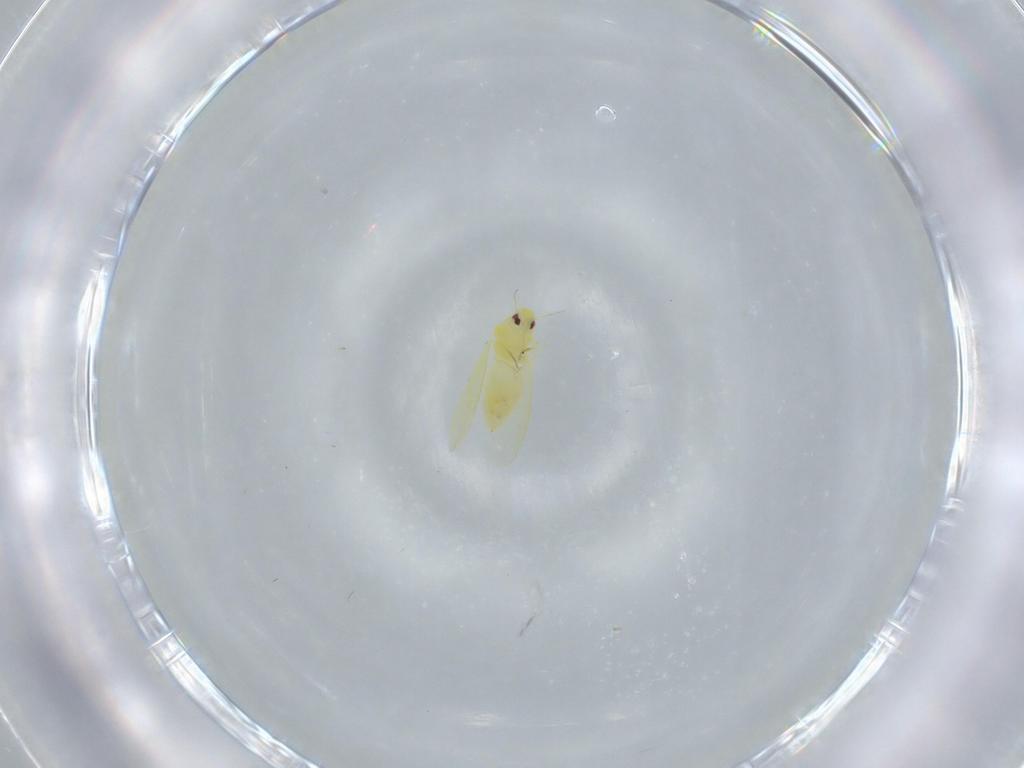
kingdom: Animalia
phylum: Arthropoda
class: Insecta
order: Hemiptera
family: Aleyrodidae
